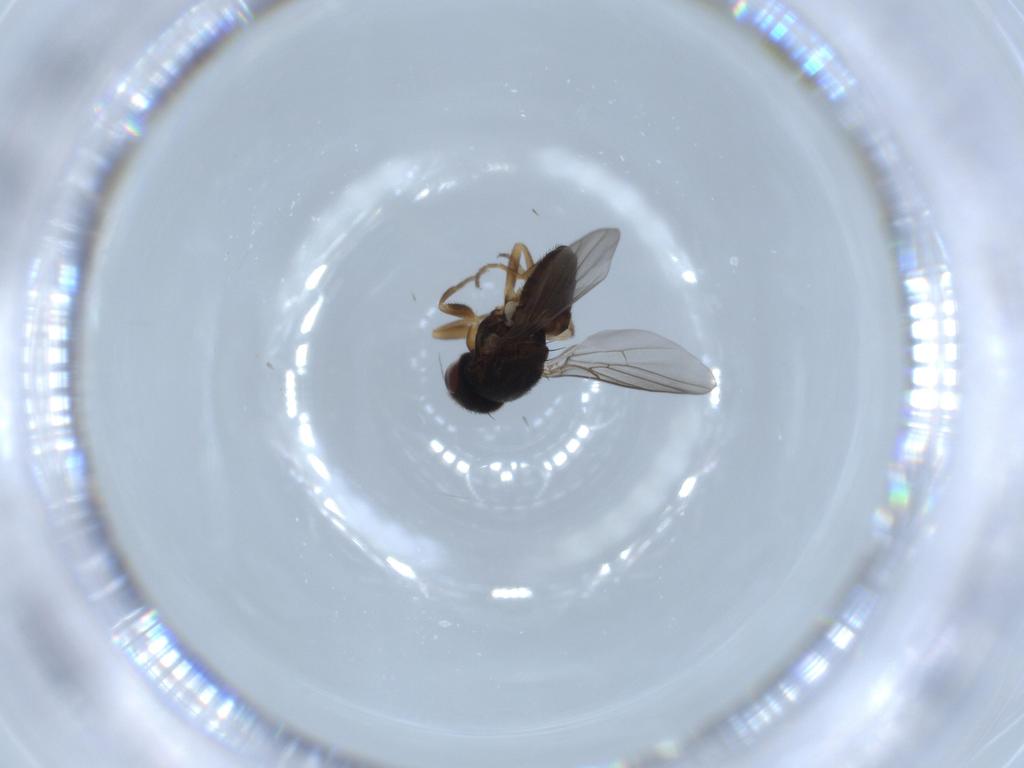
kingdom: Animalia
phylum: Arthropoda
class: Insecta
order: Diptera
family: Chloropidae
